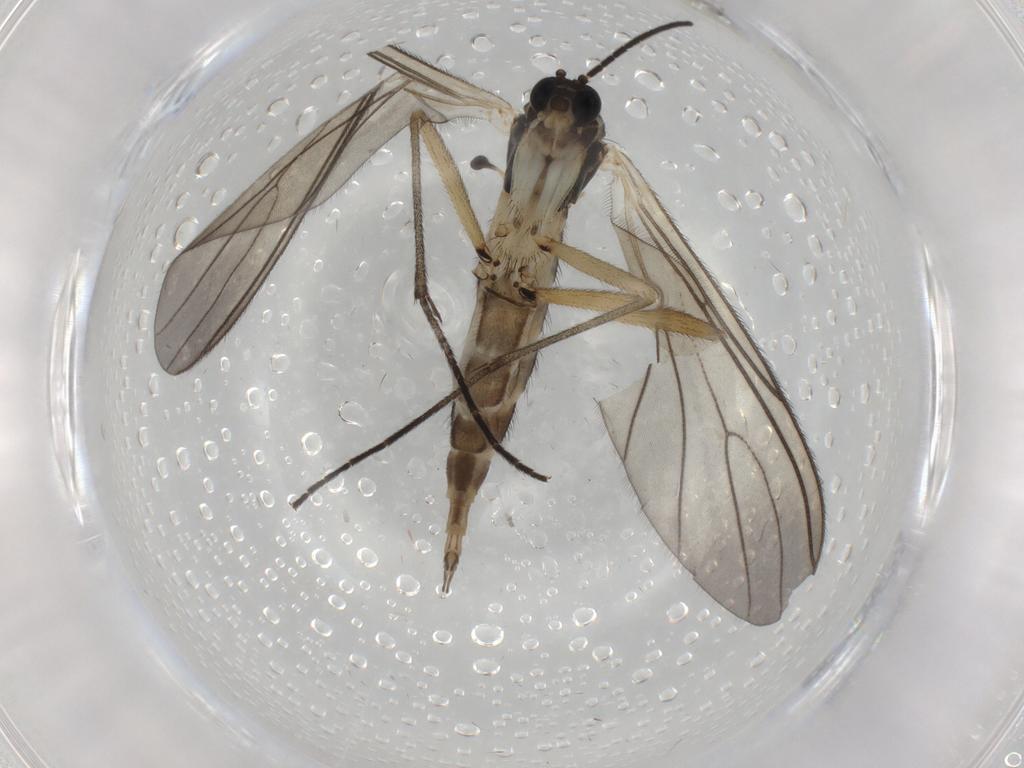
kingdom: Animalia
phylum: Arthropoda
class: Insecta
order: Diptera
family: Sciaridae
